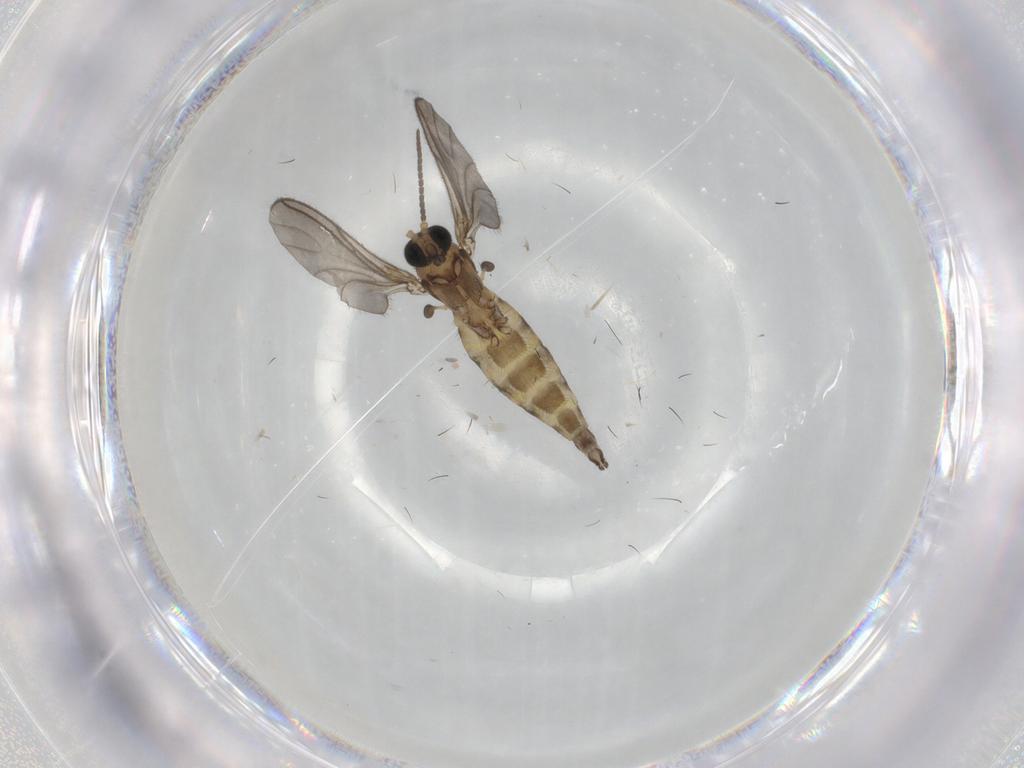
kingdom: Animalia
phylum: Arthropoda
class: Insecta
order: Diptera
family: Sciaridae
